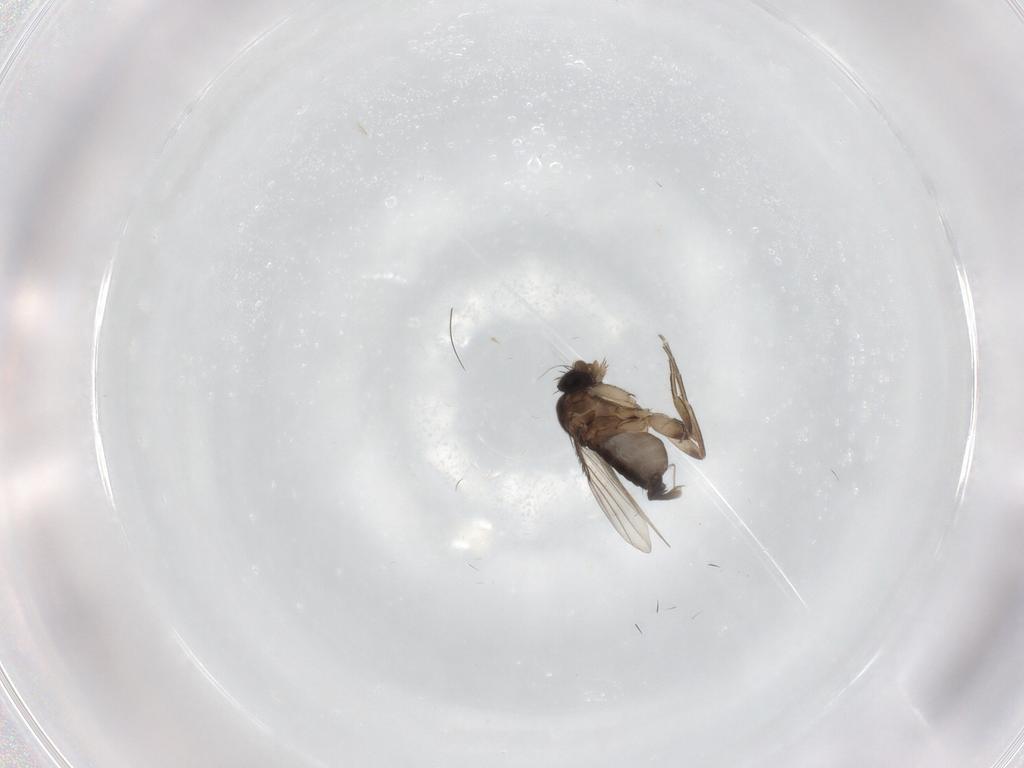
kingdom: Animalia
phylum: Arthropoda
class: Insecta
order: Diptera
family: Phoridae
